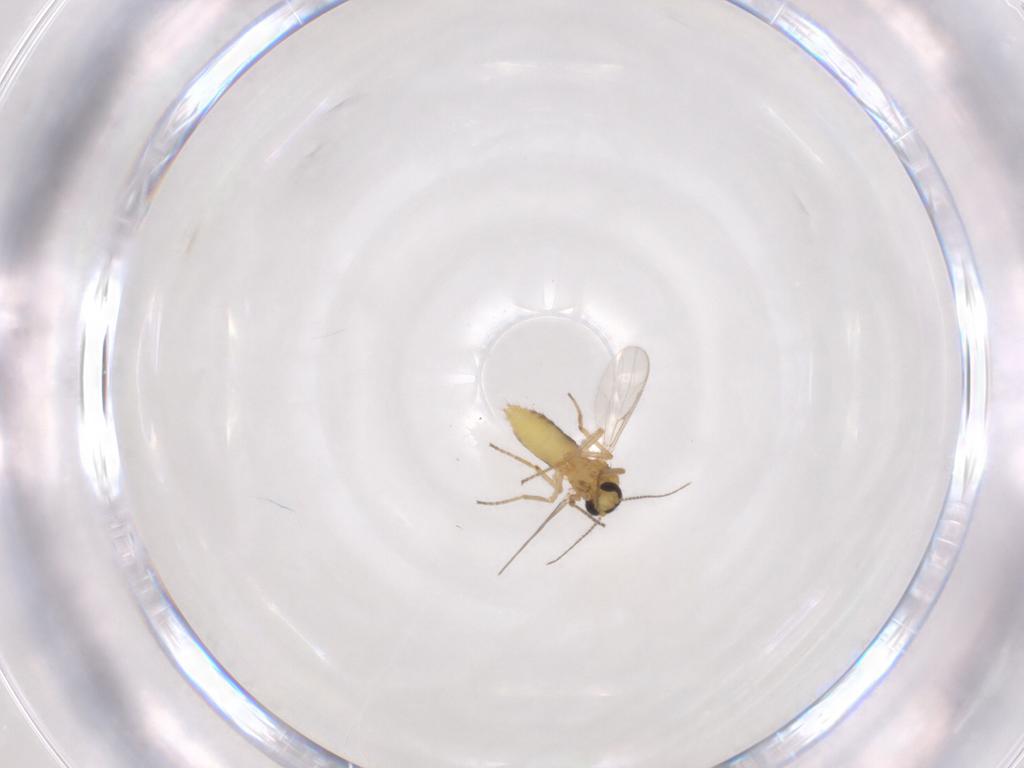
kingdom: Animalia
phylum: Arthropoda
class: Insecta
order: Diptera
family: Ceratopogonidae
